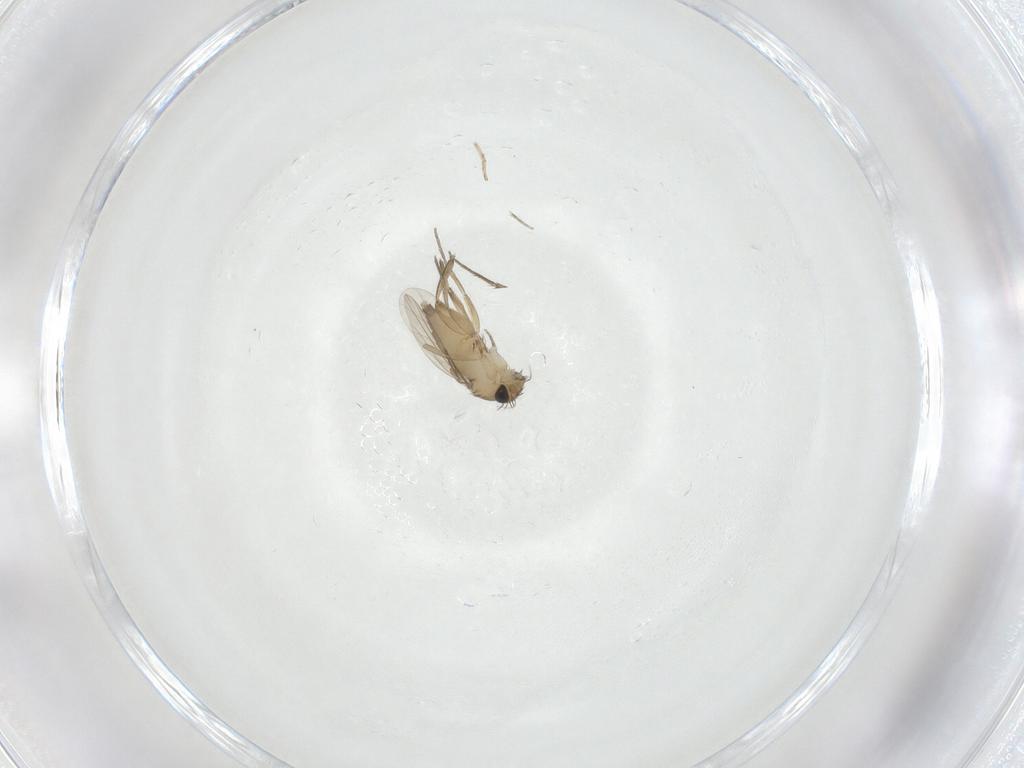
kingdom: Animalia
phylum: Arthropoda
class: Insecta
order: Diptera
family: Phoridae
